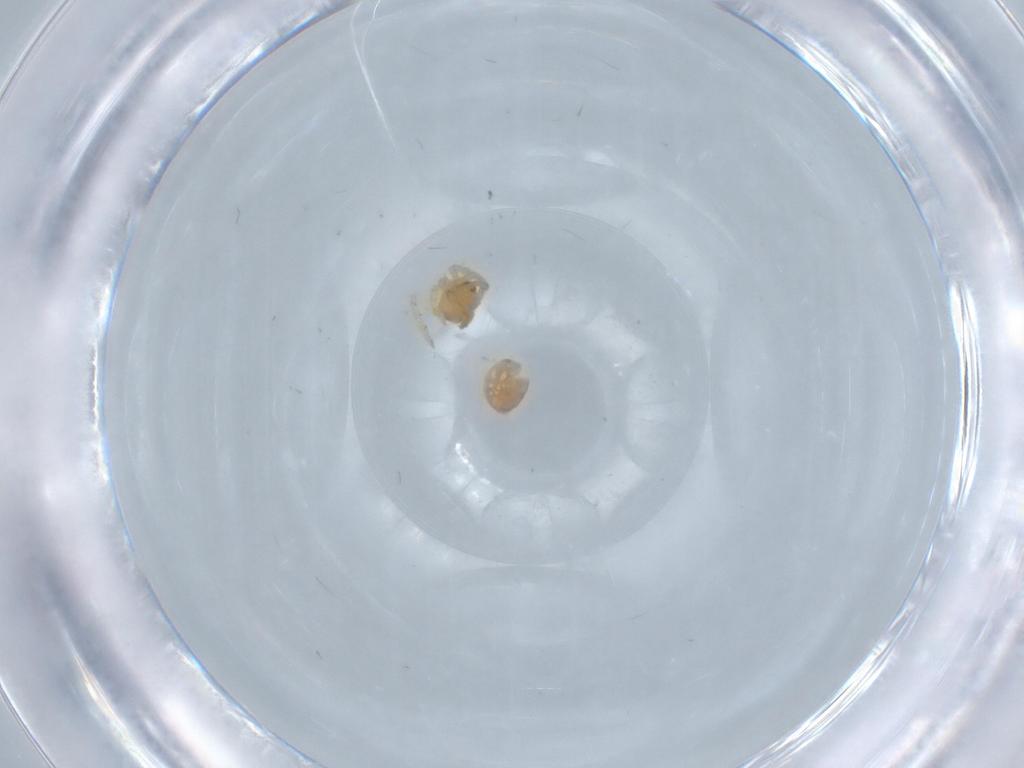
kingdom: Animalia
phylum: Arthropoda
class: Arachnida
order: Araneae
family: Theridiidae
